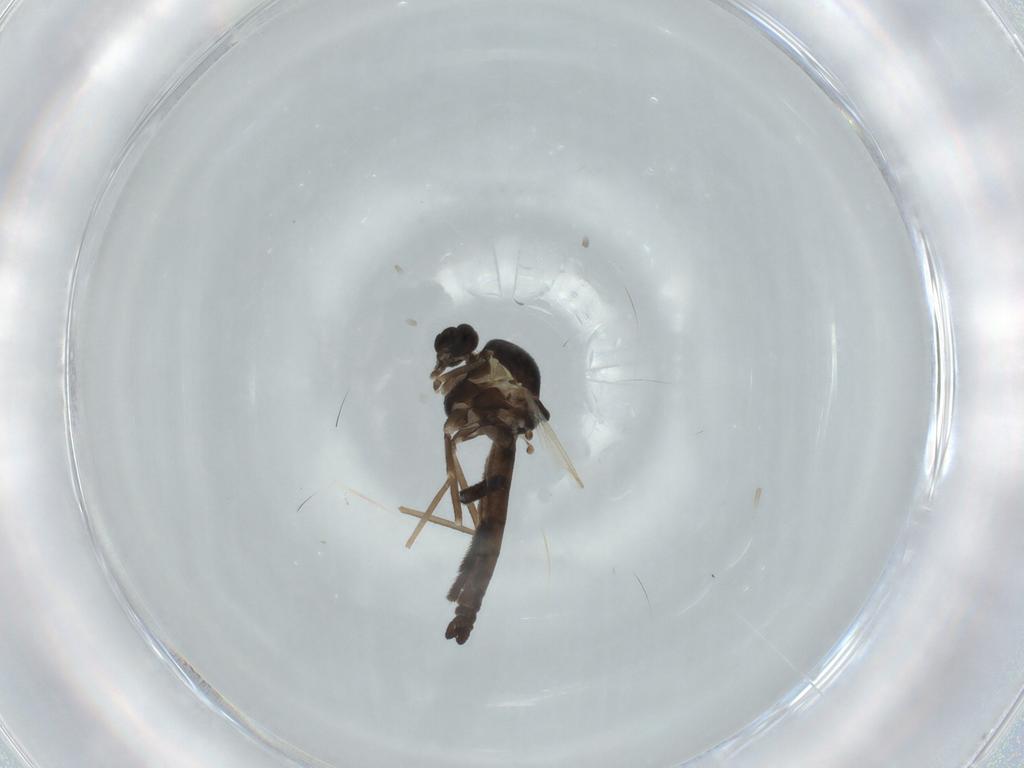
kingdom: Animalia
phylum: Arthropoda
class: Insecta
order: Diptera
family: Ceratopogonidae
